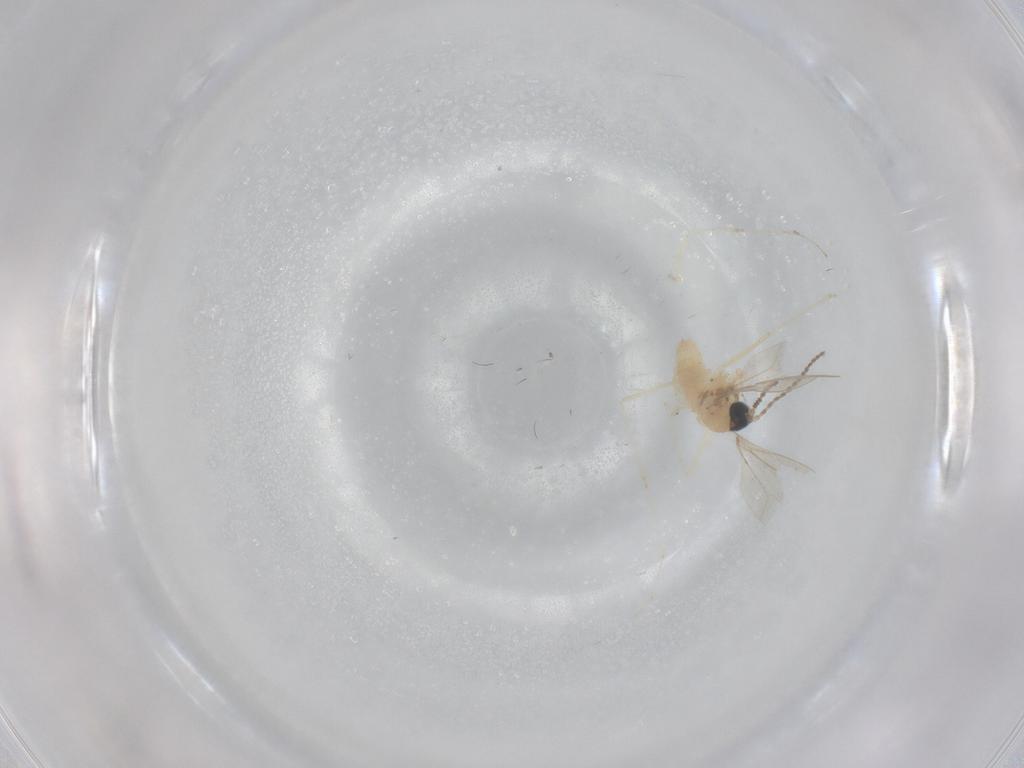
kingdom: Animalia
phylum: Arthropoda
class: Insecta
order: Diptera
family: Cecidomyiidae
